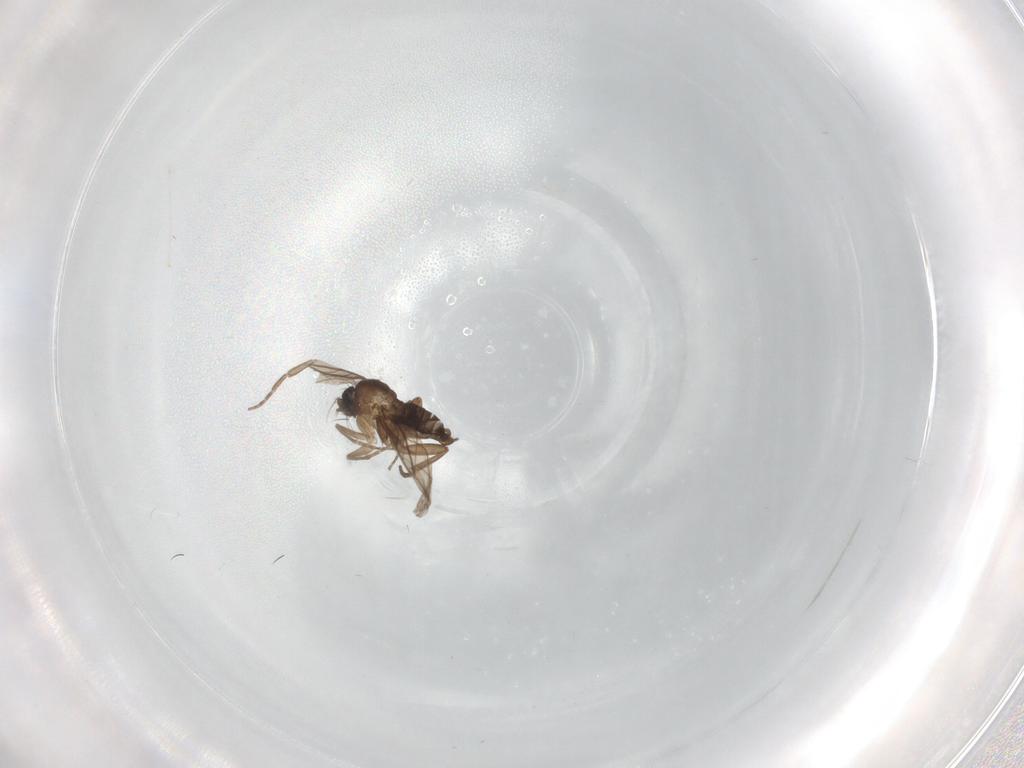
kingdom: Animalia
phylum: Arthropoda
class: Insecta
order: Diptera
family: Phoridae
